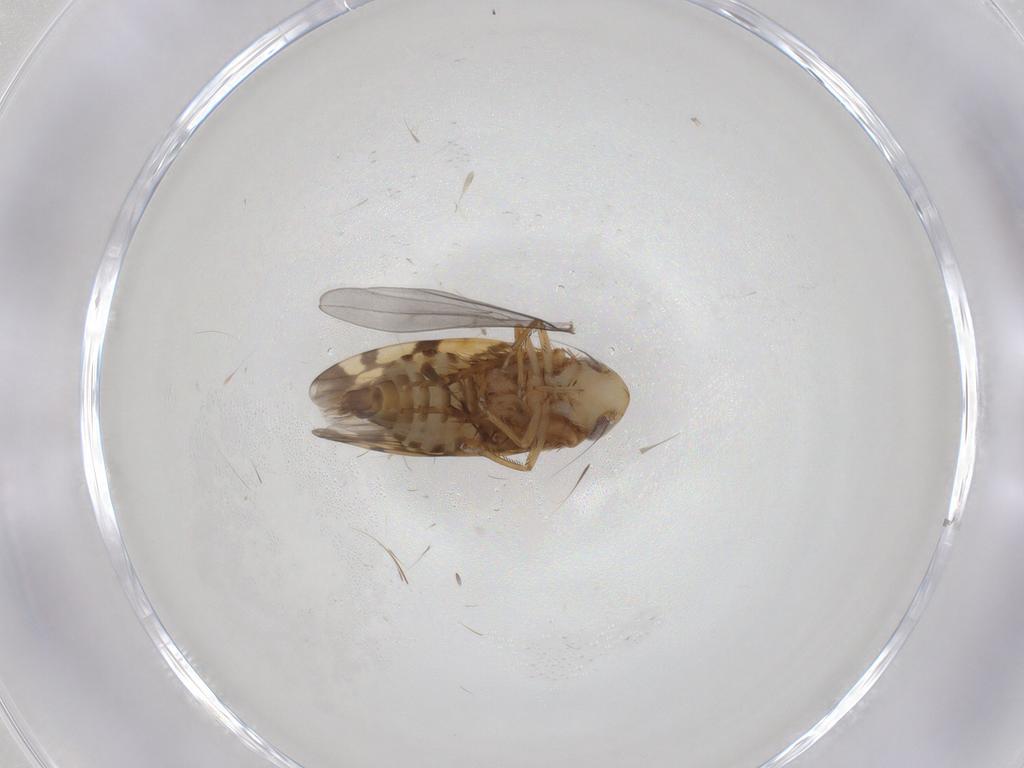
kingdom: Animalia
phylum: Arthropoda
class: Insecta
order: Hemiptera
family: Cicadellidae
